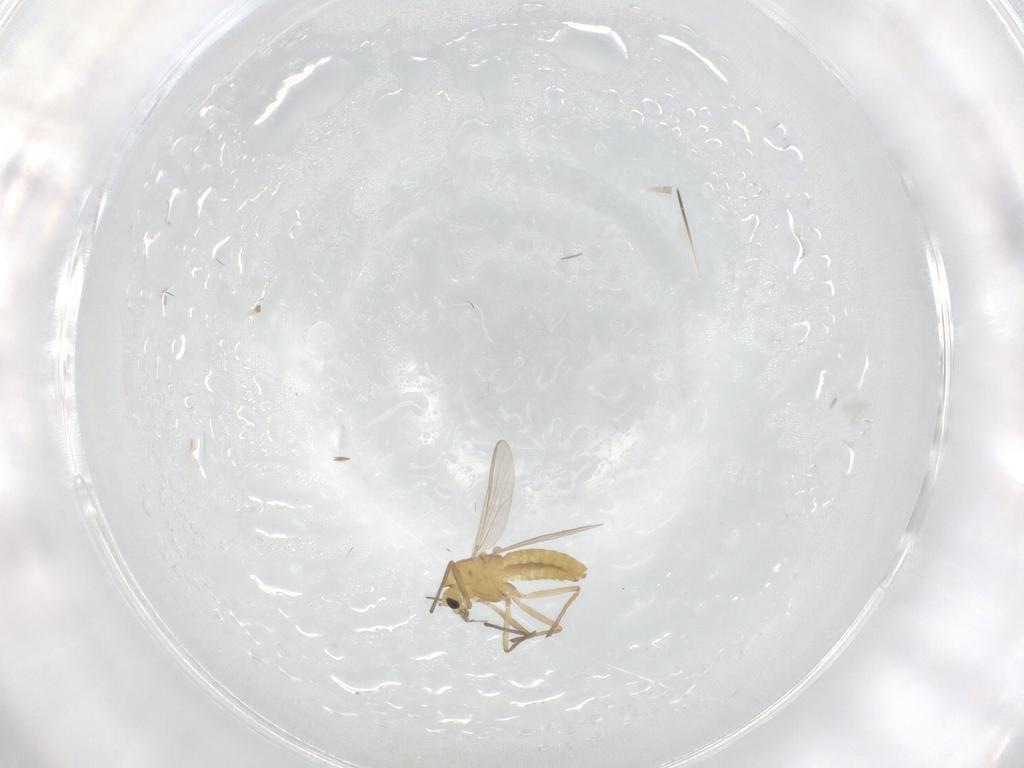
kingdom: Animalia
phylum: Arthropoda
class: Insecta
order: Diptera
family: Chironomidae
